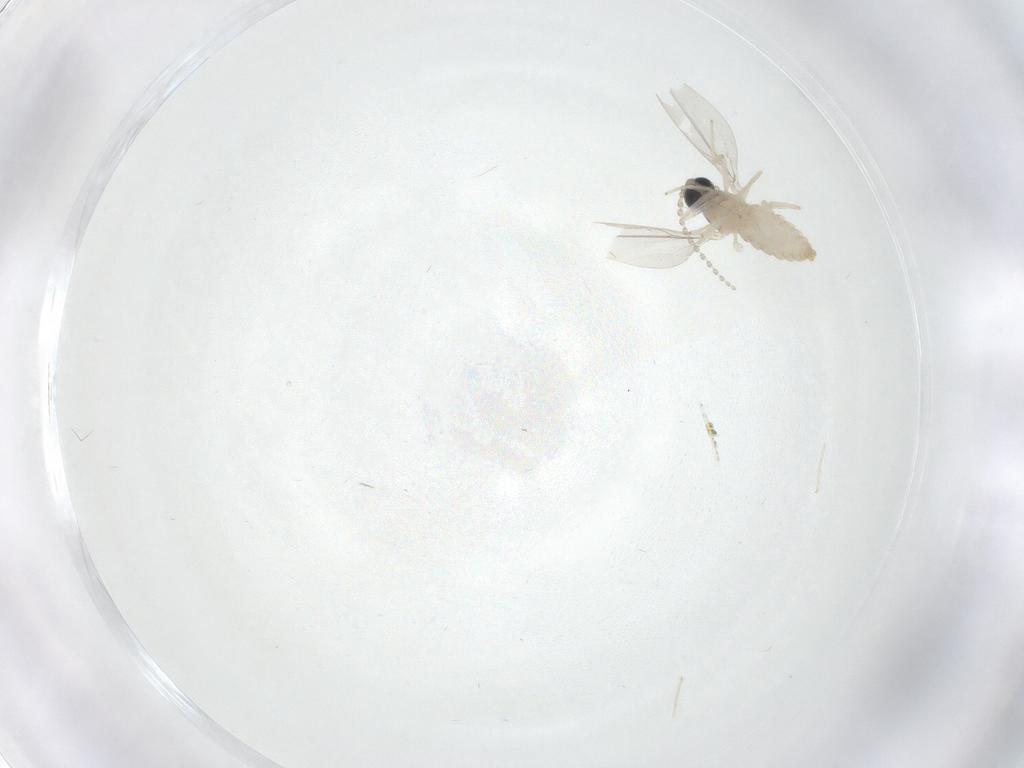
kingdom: Animalia
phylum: Arthropoda
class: Insecta
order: Diptera
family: Cecidomyiidae
